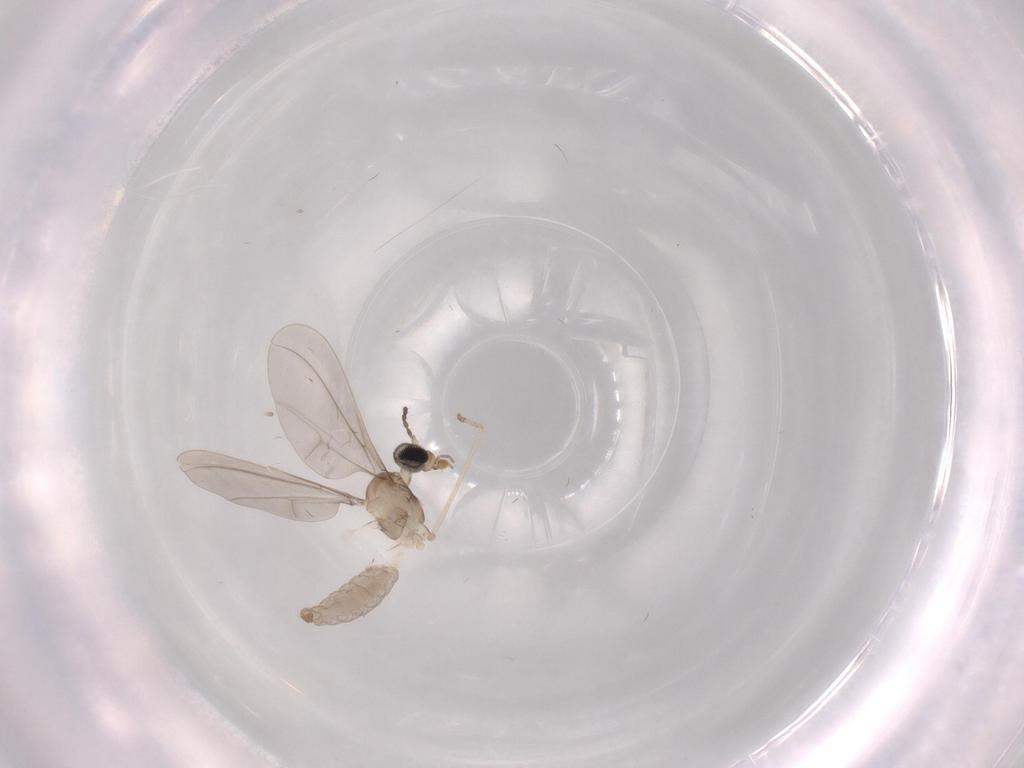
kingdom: Animalia
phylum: Arthropoda
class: Insecta
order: Diptera
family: Cecidomyiidae
